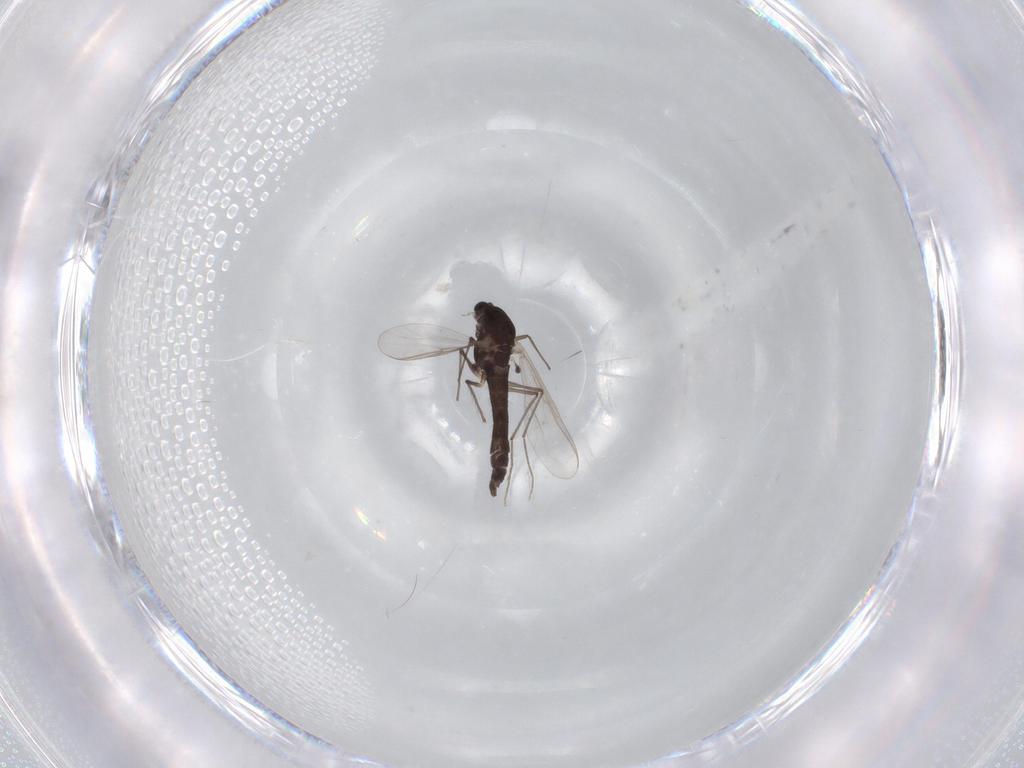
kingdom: Animalia
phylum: Arthropoda
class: Insecta
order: Diptera
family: Chironomidae
